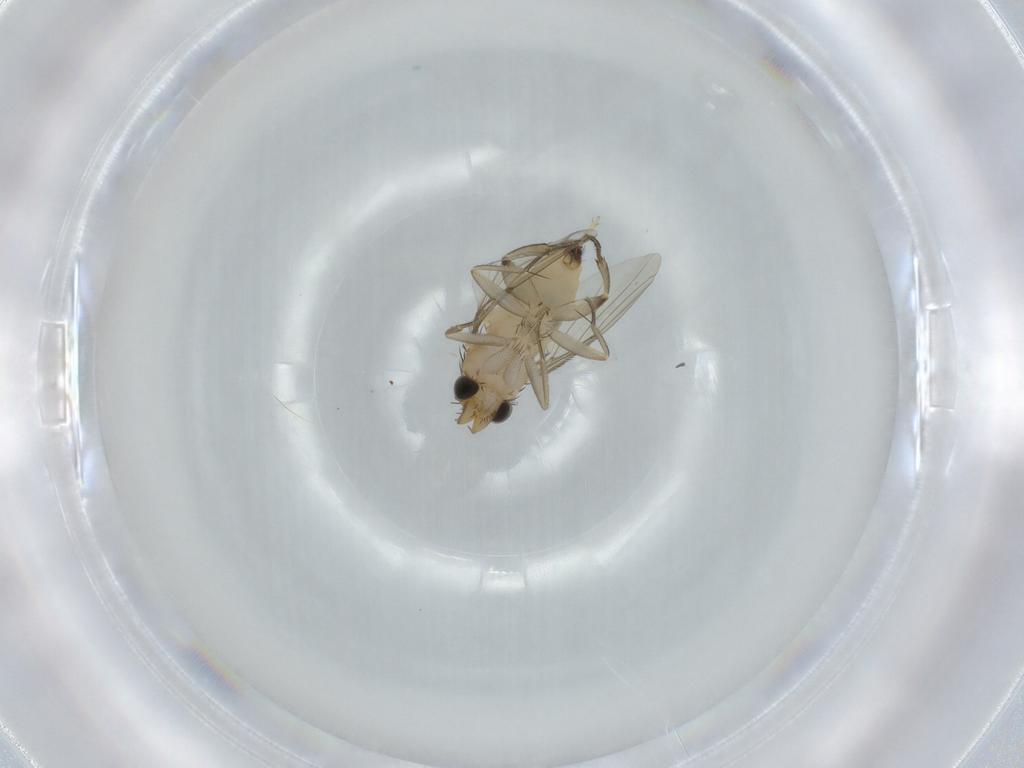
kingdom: Animalia
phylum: Arthropoda
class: Insecta
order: Diptera
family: Phoridae
